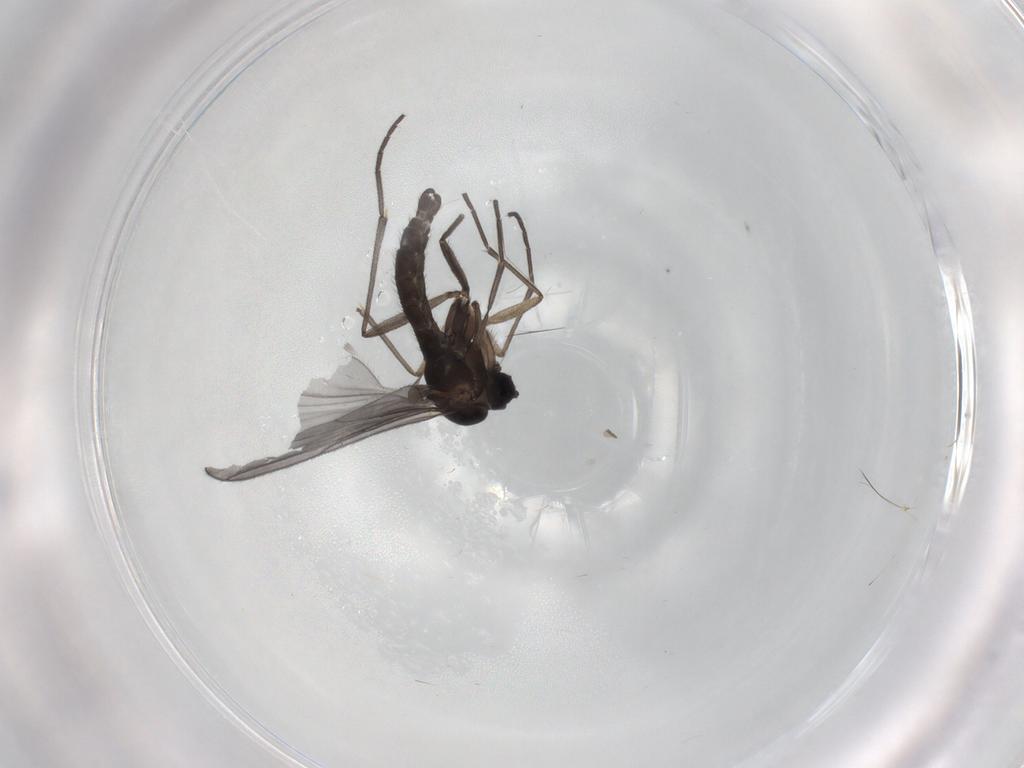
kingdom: Animalia
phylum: Arthropoda
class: Insecta
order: Diptera
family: Sciaridae
